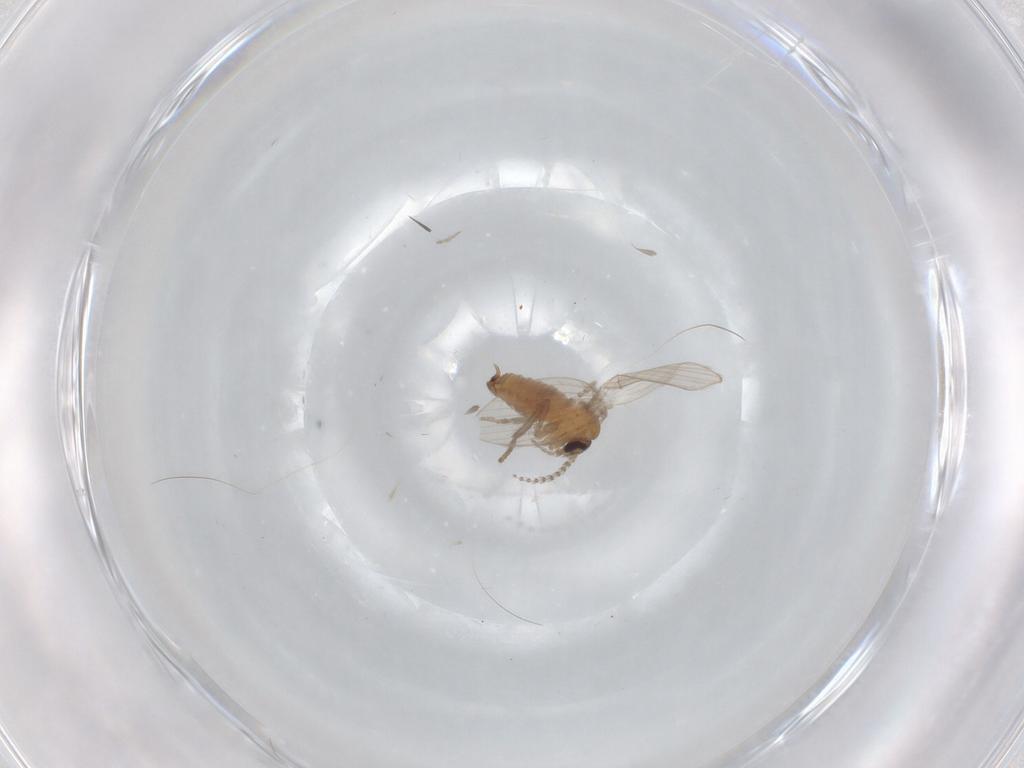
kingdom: Animalia
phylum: Arthropoda
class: Insecta
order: Diptera
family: Psychodidae
